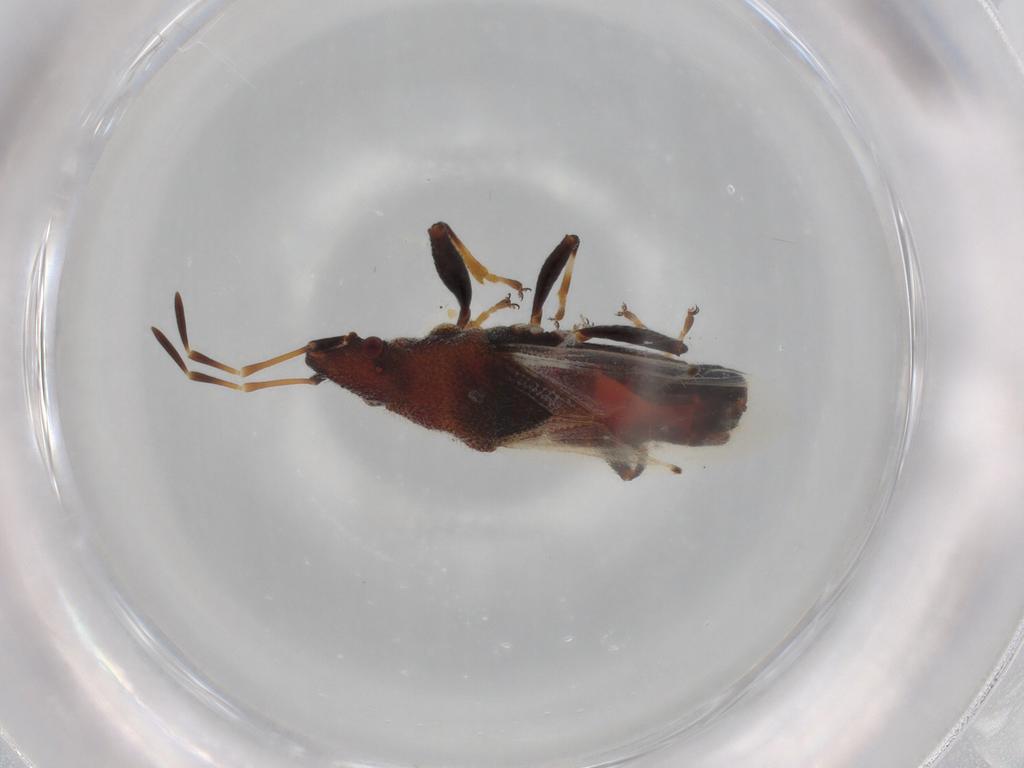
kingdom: Animalia
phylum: Arthropoda
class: Insecta
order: Hemiptera
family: Oxycarenidae
